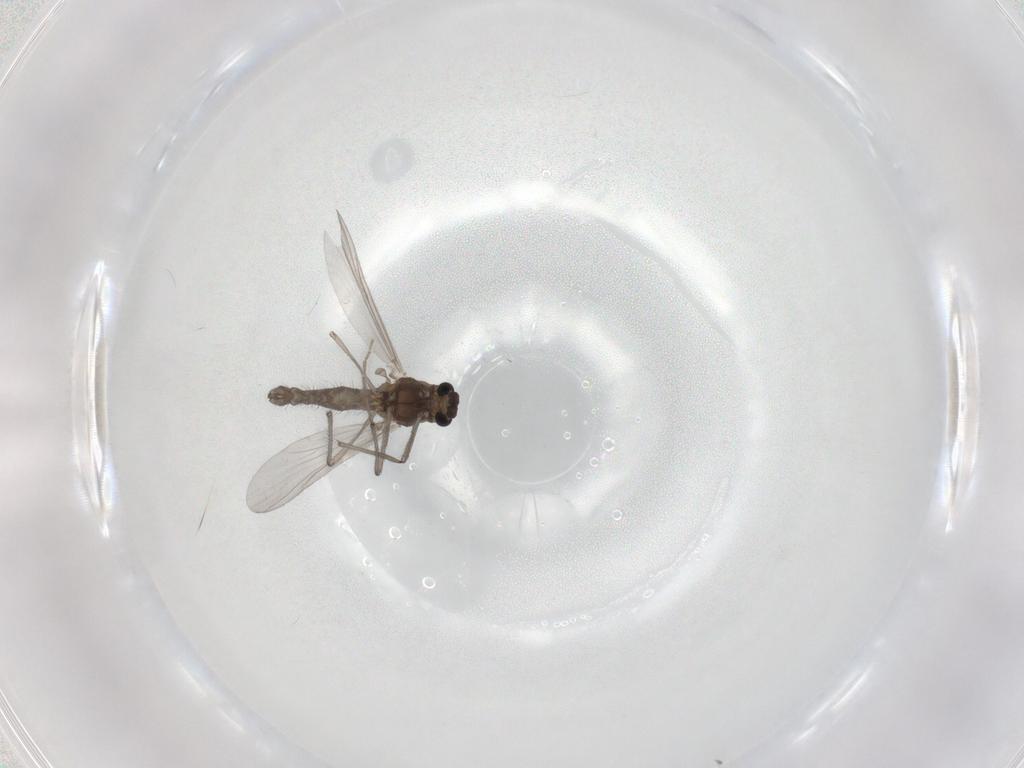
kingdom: Animalia
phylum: Arthropoda
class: Insecta
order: Diptera
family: Chironomidae
